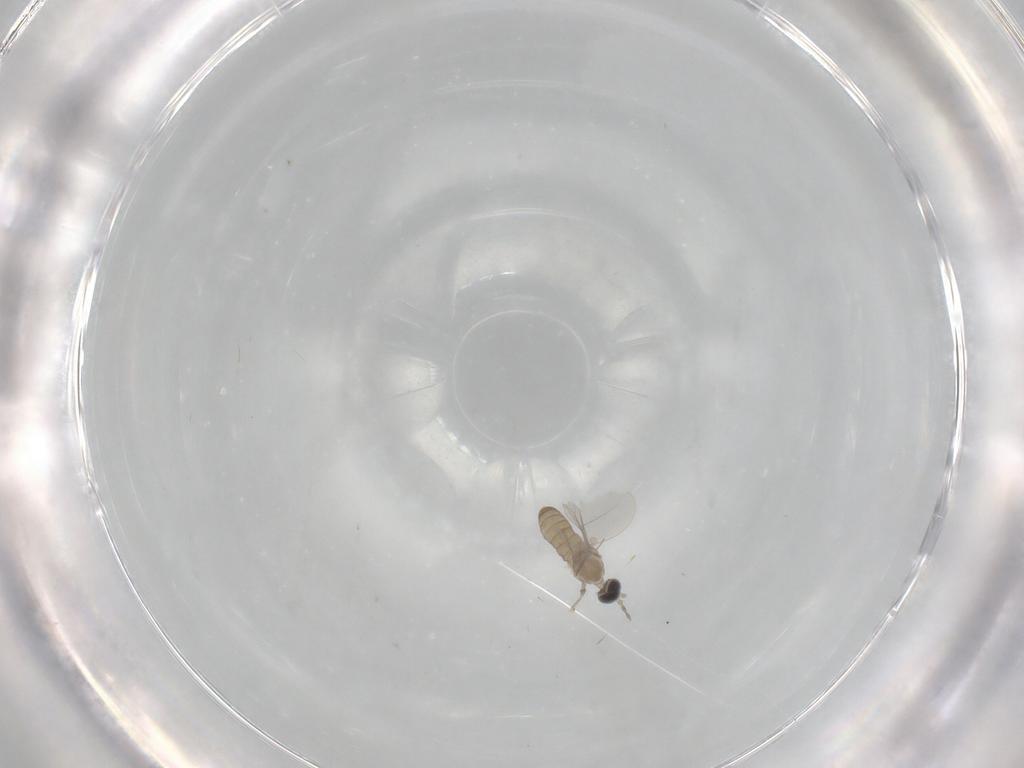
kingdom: Animalia
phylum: Arthropoda
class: Insecta
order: Diptera
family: Cecidomyiidae
